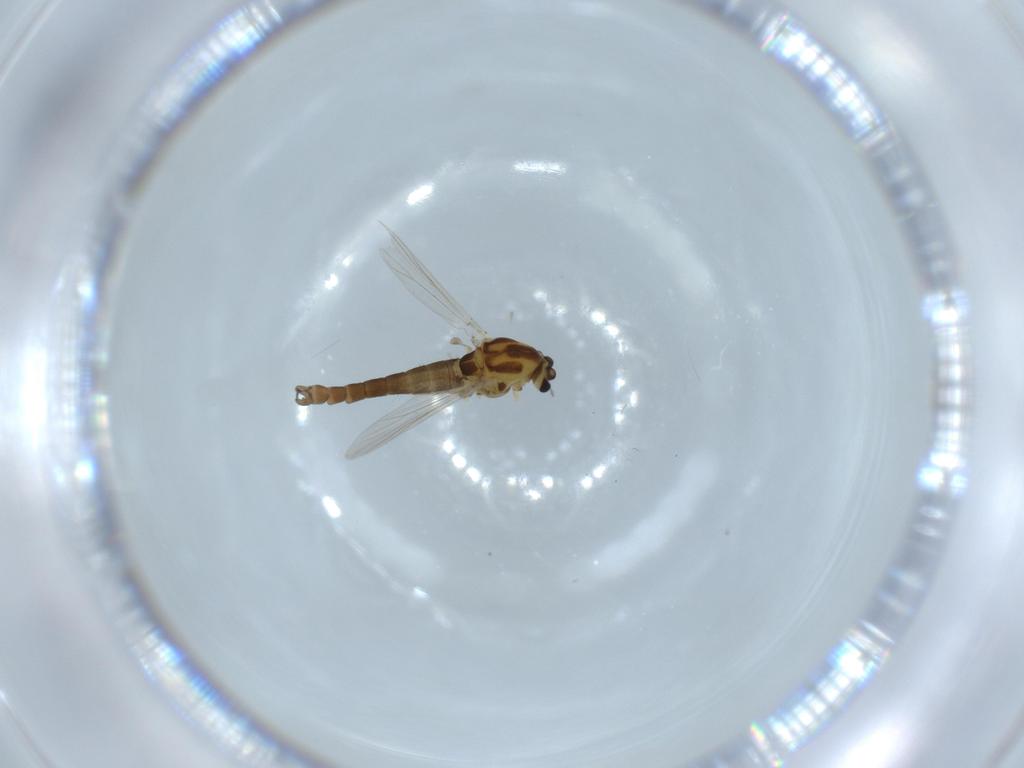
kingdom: Animalia
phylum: Arthropoda
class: Insecta
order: Diptera
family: Chironomidae
